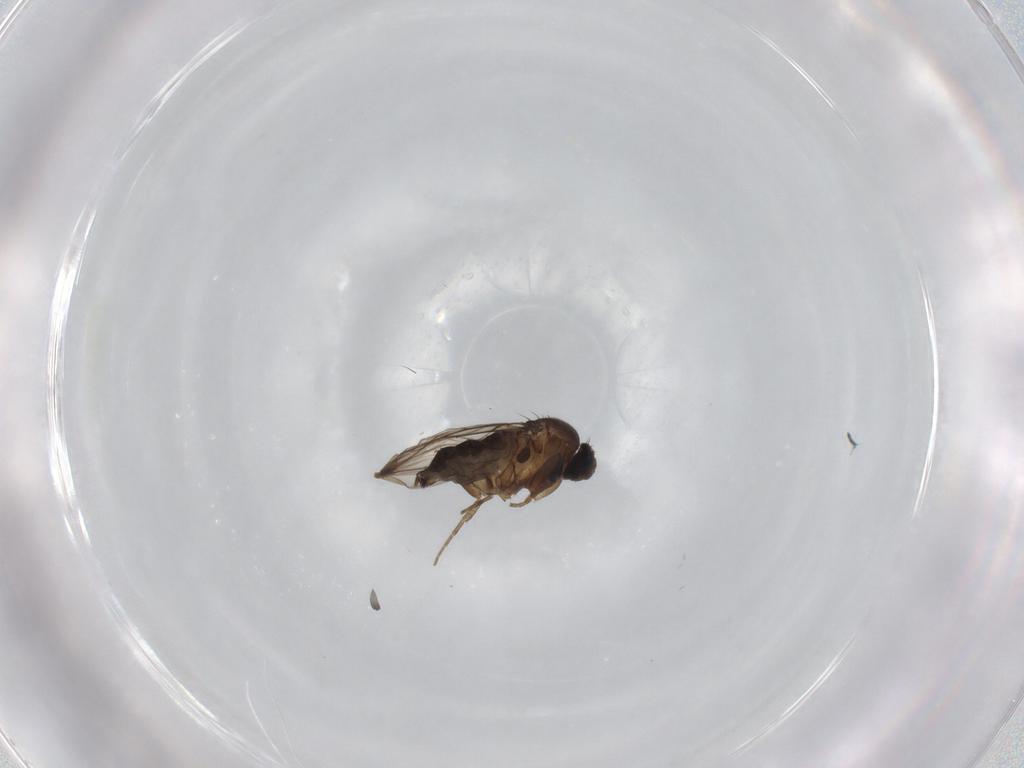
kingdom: Animalia
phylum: Arthropoda
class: Insecta
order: Diptera
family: Phoridae
